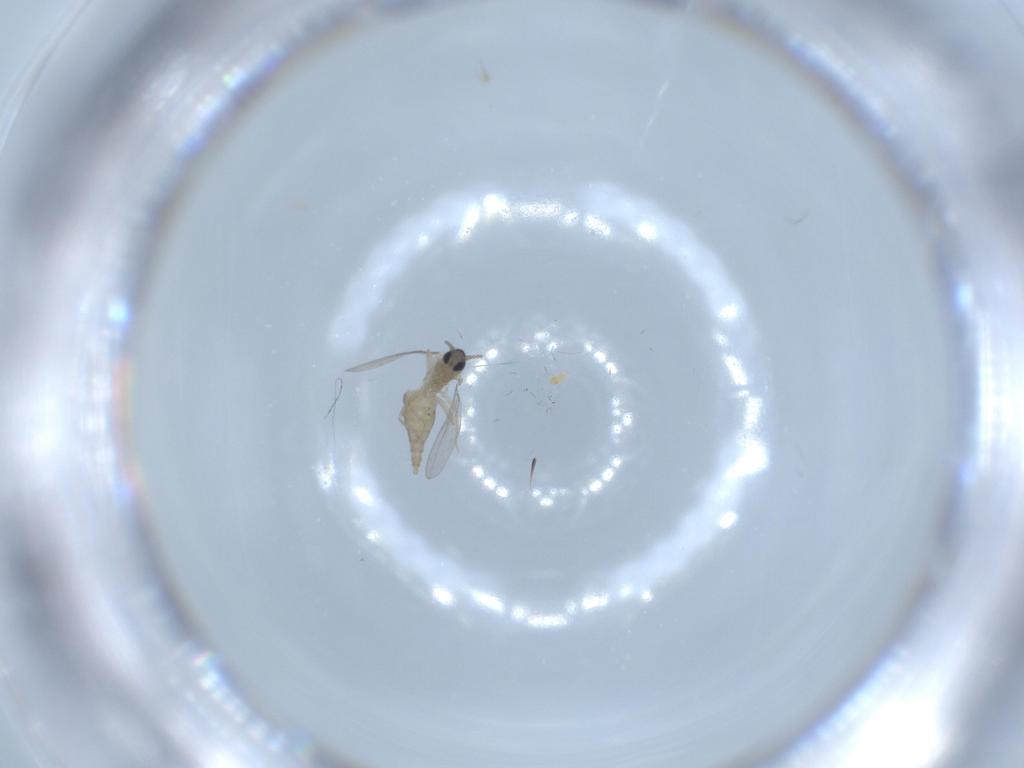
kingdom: Animalia
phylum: Arthropoda
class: Insecta
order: Diptera
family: Cecidomyiidae
